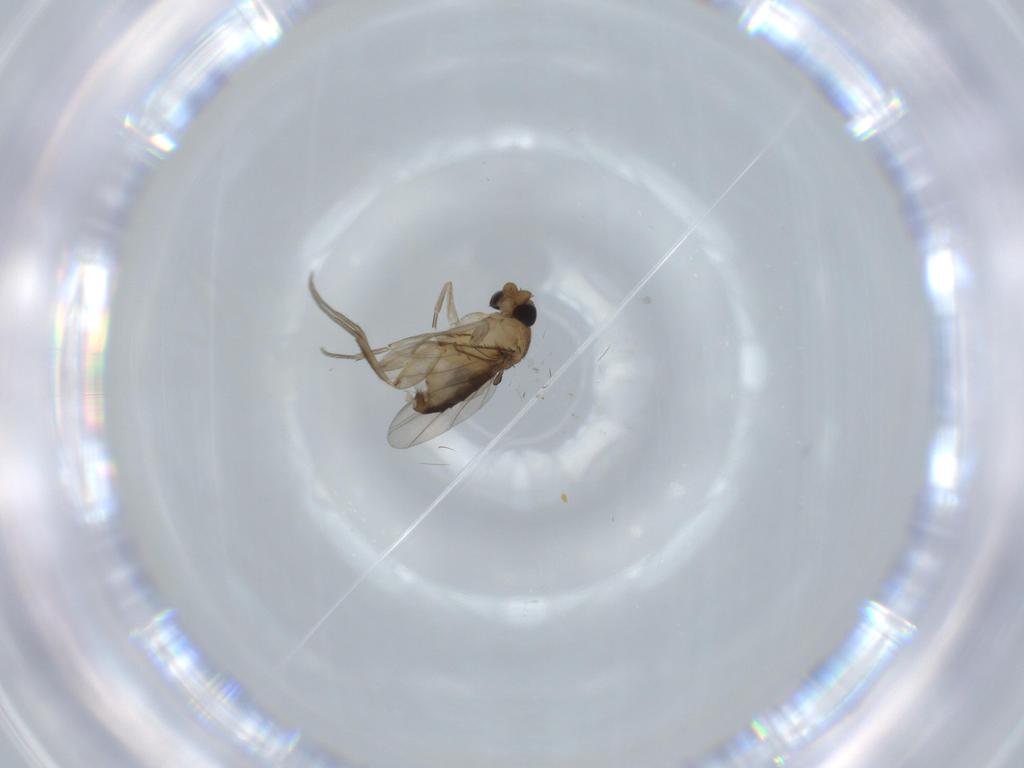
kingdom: Animalia
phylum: Arthropoda
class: Insecta
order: Diptera
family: Phoridae
